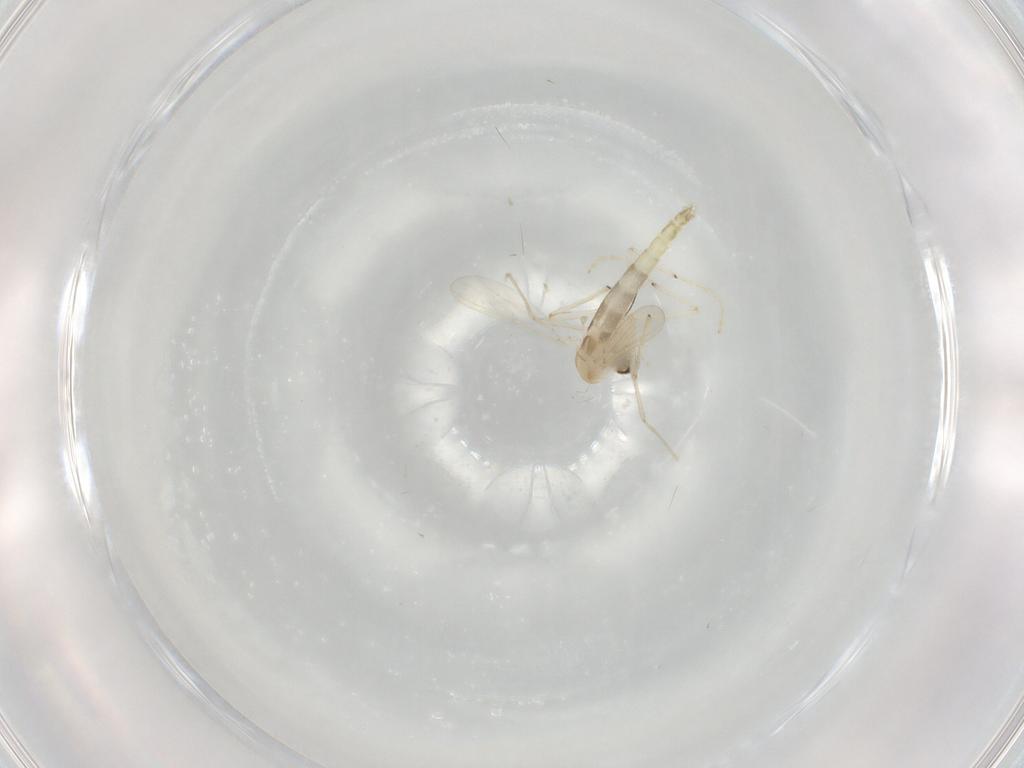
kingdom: Animalia
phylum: Arthropoda
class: Insecta
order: Diptera
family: Chironomidae
